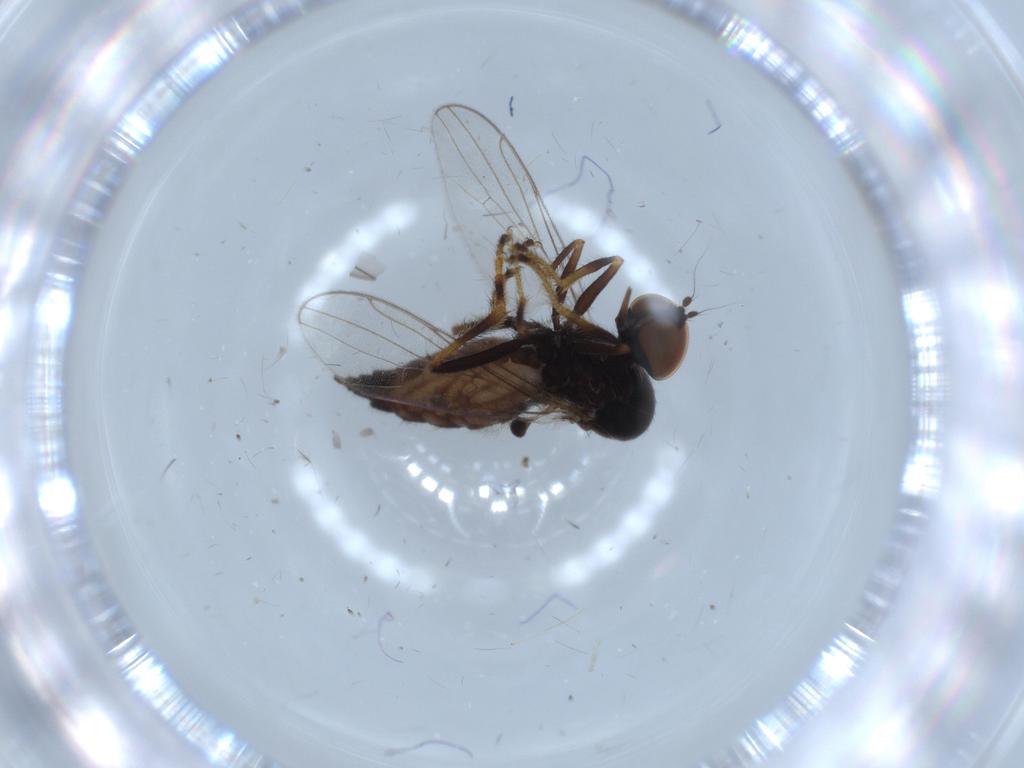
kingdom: Animalia
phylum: Arthropoda
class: Insecta
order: Diptera
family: Hybotidae
